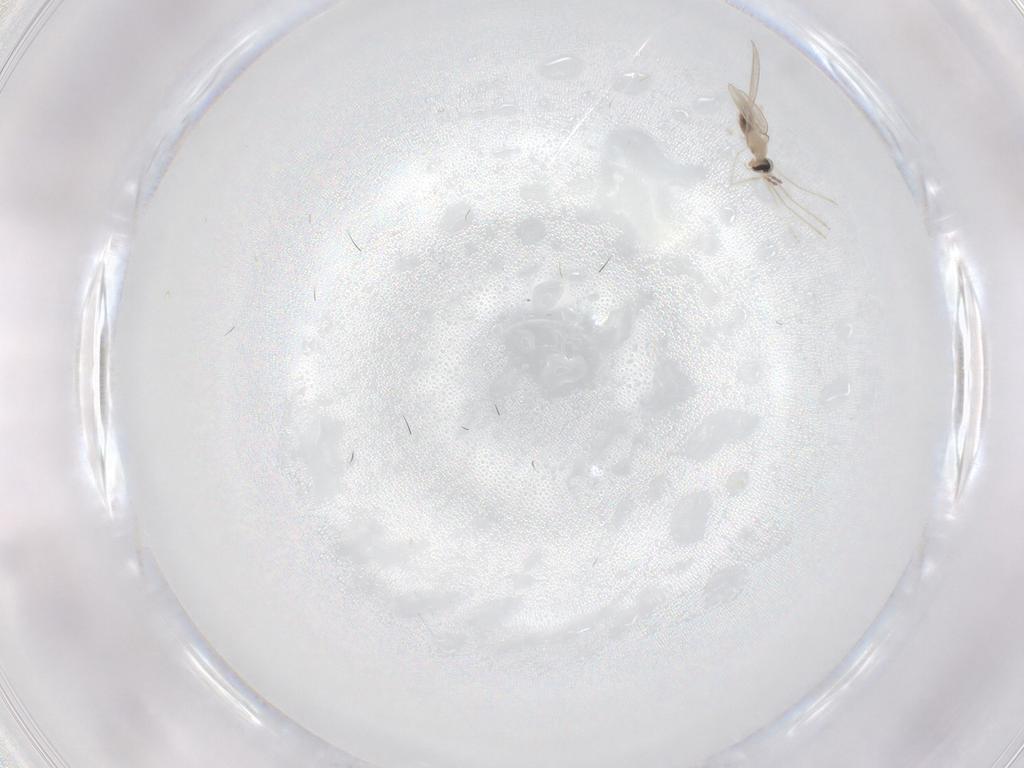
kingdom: Animalia
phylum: Arthropoda
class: Insecta
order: Diptera
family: Cecidomyiidae
